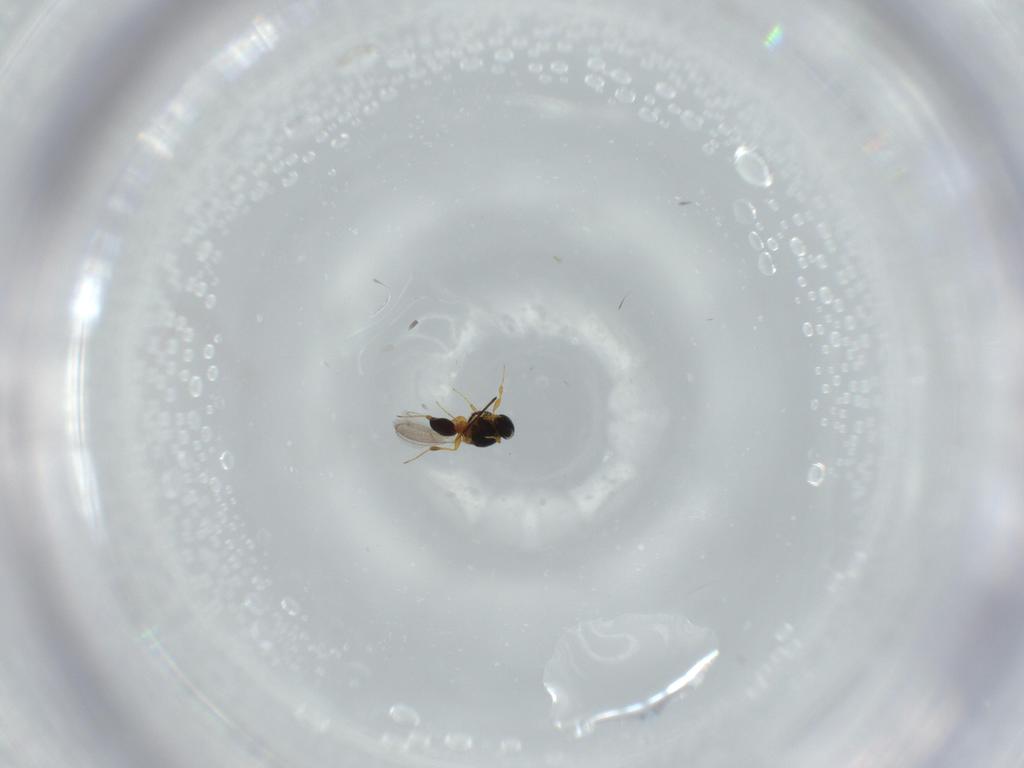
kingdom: Animalia
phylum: Arthropoda
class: Insecta
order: Hymenoptera
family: Platygastridae
